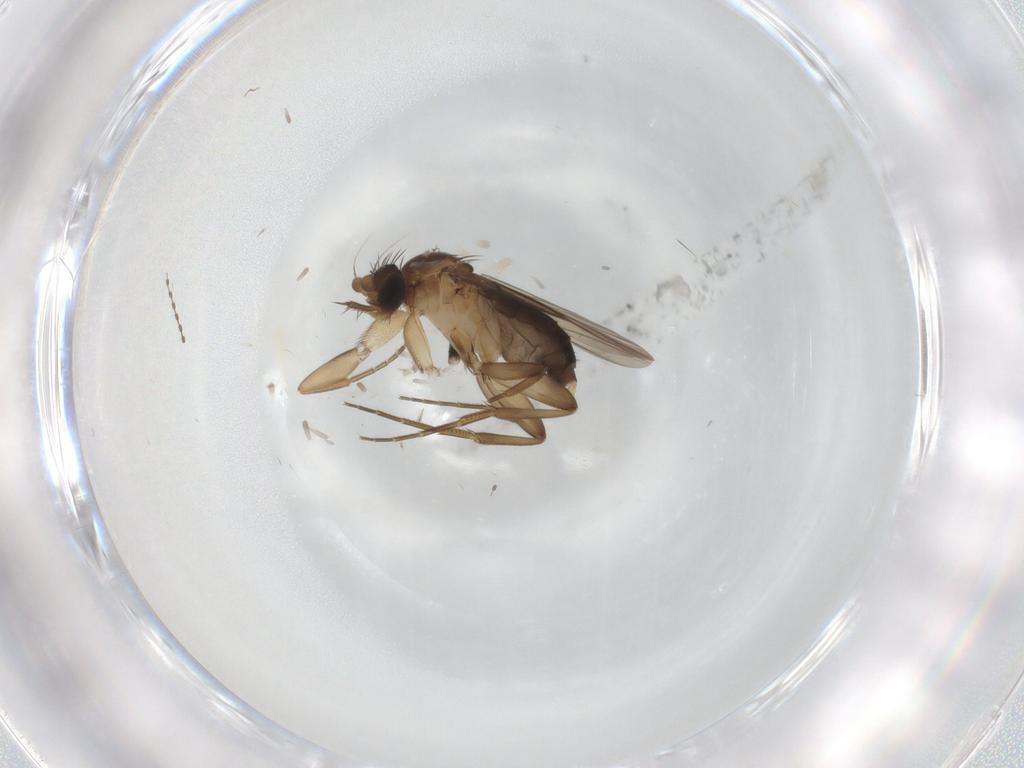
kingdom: Animalia
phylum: Arthropoda
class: Insecta
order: Diptera
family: Phoridae
